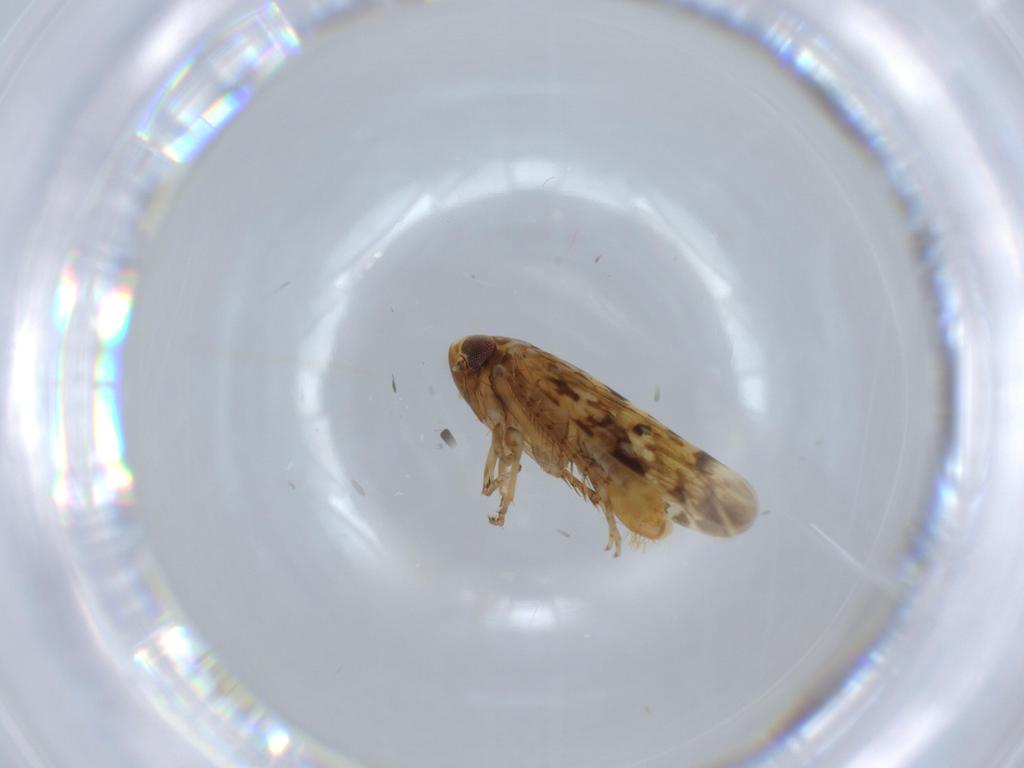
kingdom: Animalia
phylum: Arthropoda
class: Insecta
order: Hemiptera
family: Cicadellidae
